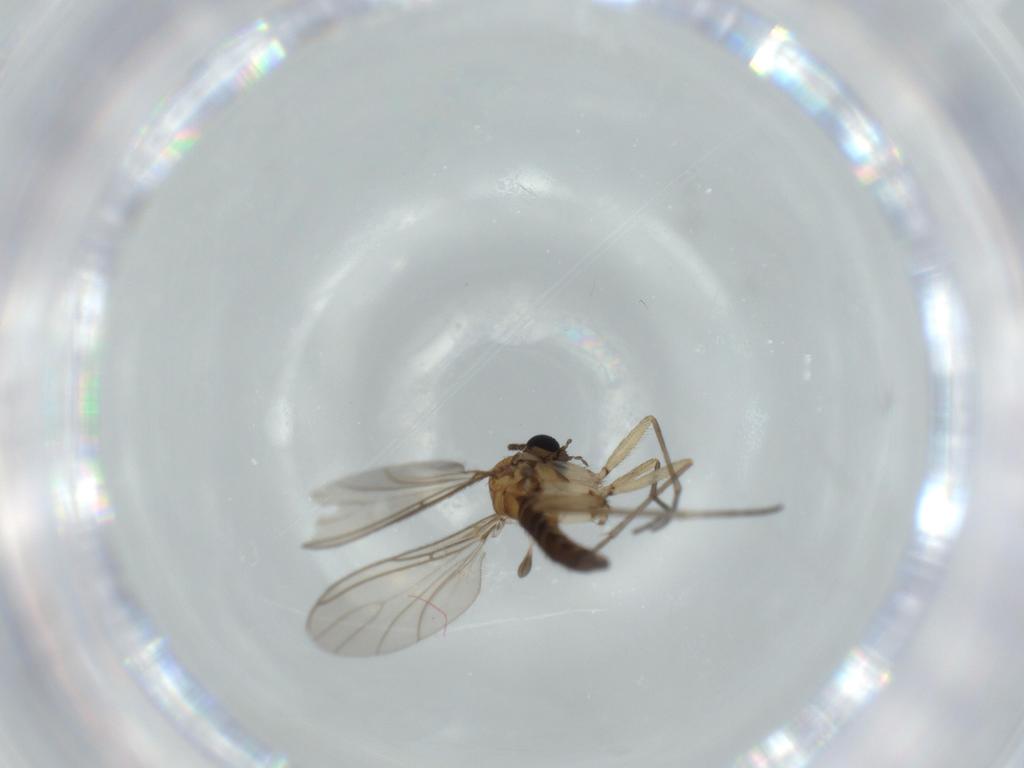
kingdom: Animalia
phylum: Arthropoda
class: Insecta
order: Diptera
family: Sciaridae
